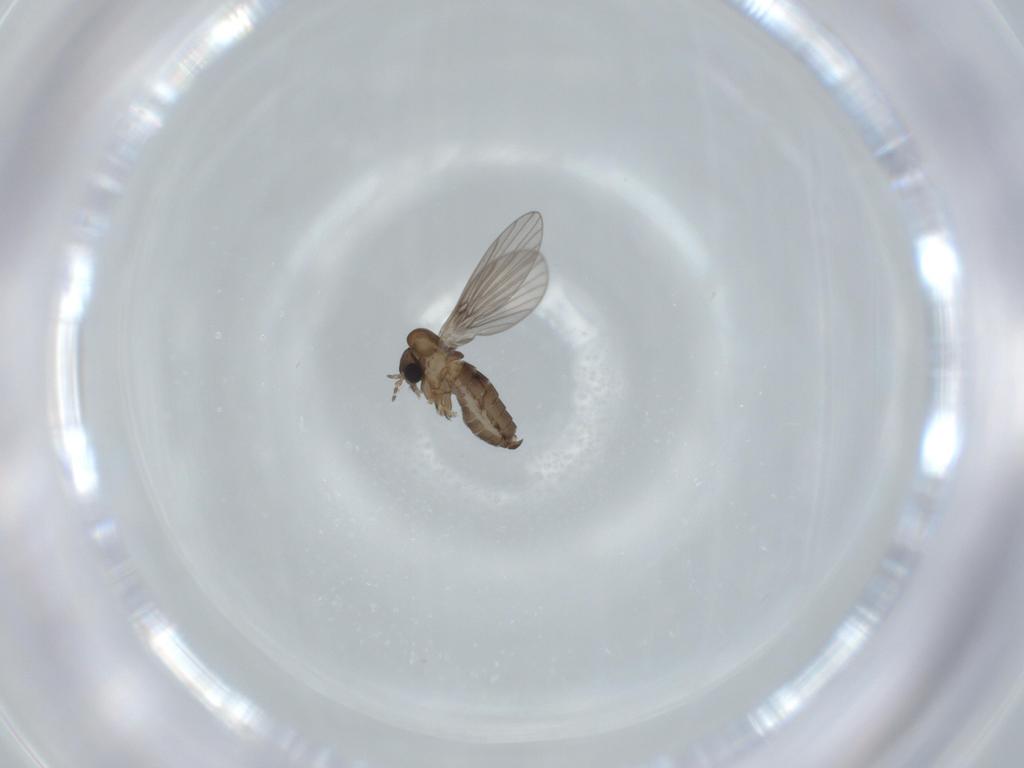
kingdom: Animalia
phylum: Arthropoda
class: Insecta
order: Diptera
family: Psychodidae
